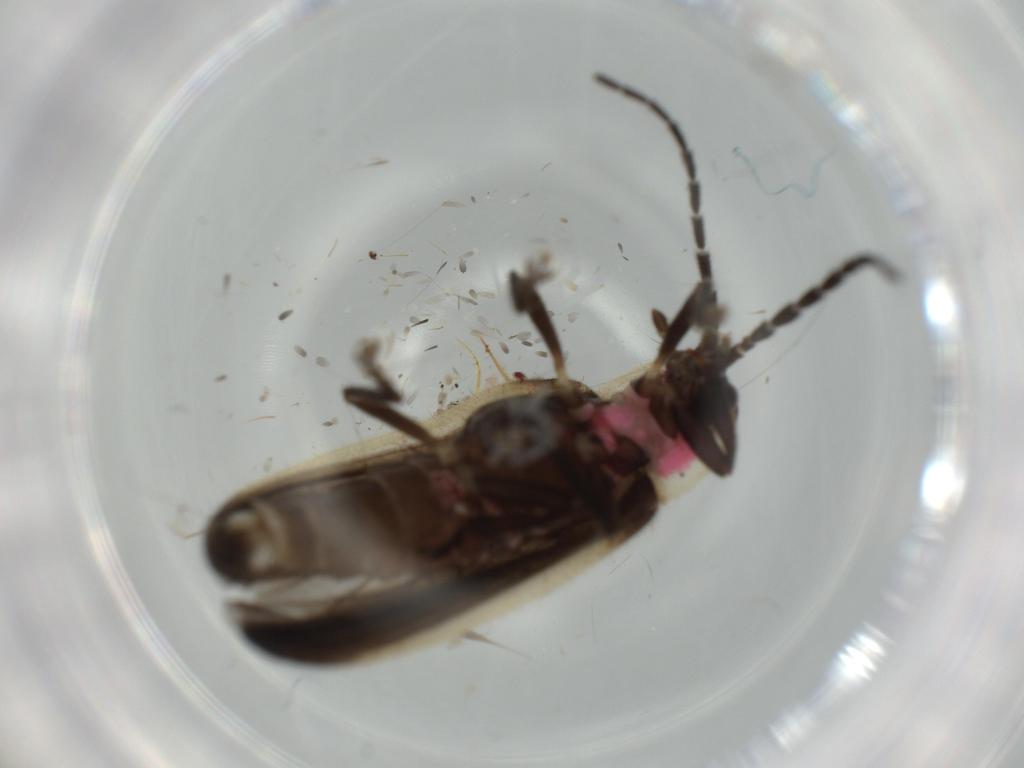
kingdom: Animalia
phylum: Arthropoda
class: Insecta
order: Coleoptera
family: Lampyridae
